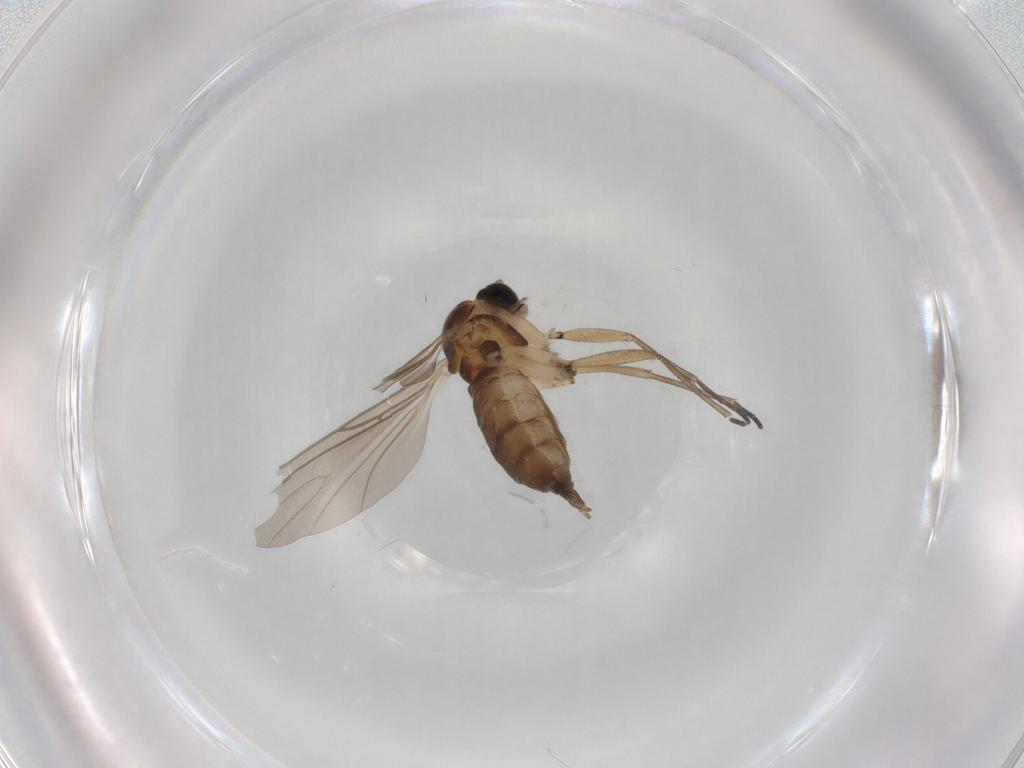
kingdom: Animalia
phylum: Arthropoda
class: Insecta
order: Diptera
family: Sciaridae
